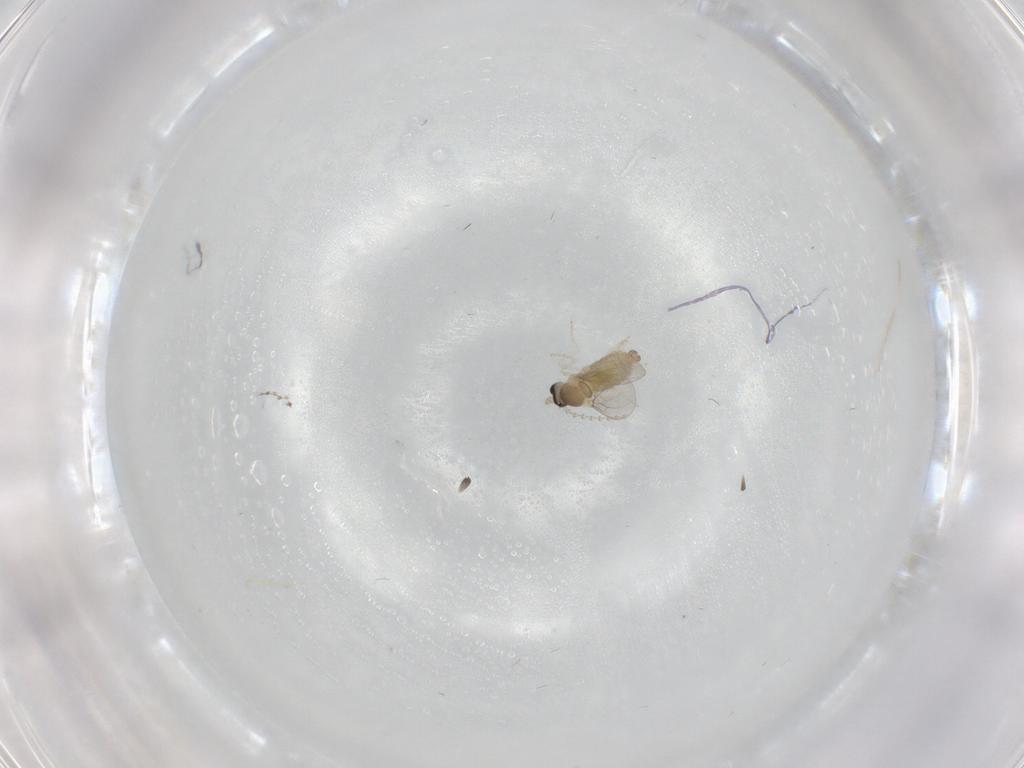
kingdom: Animalia
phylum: Arthropoda
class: Insecta
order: Diptera
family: Cecidomyiidae
